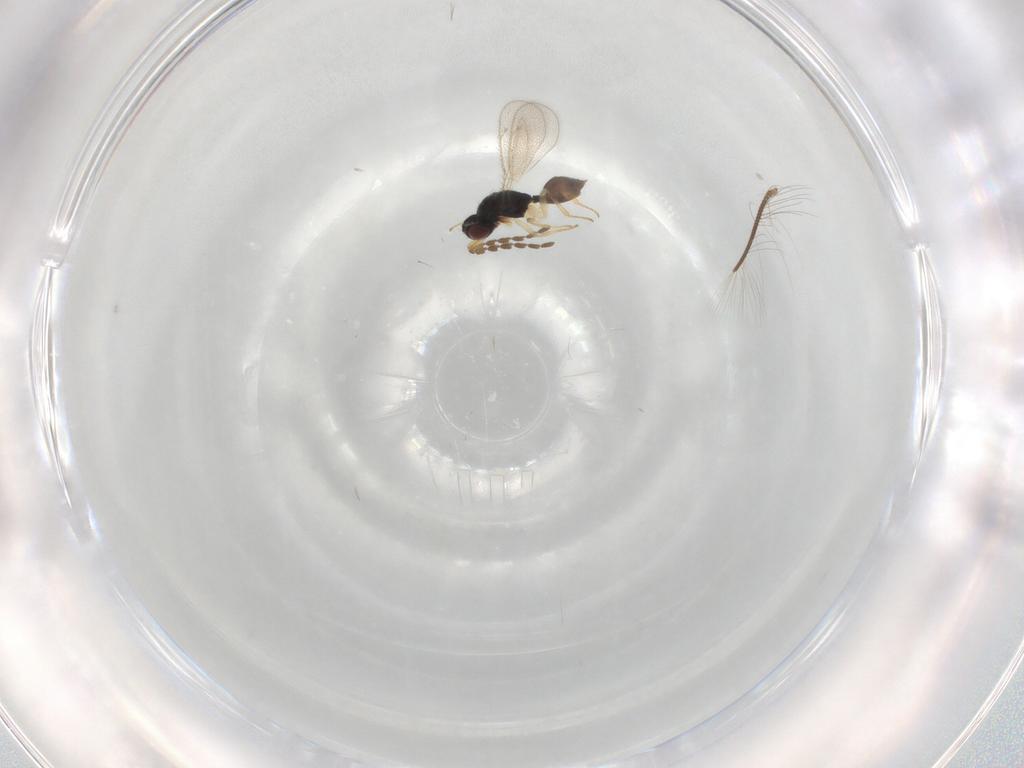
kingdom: Animalia
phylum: Arthropoda
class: Insecta
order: Hymenoptera
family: Eulophidae
